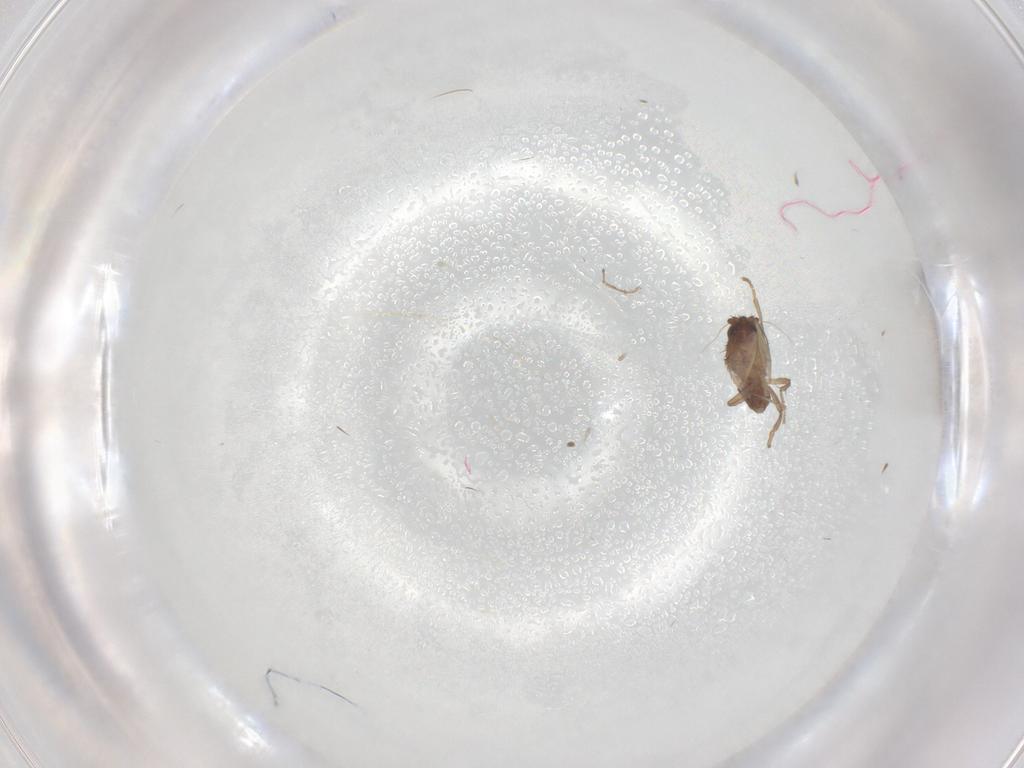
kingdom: Animalia
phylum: Arthropoda
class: Insecta
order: Diptera
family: Sphaeroceridae
